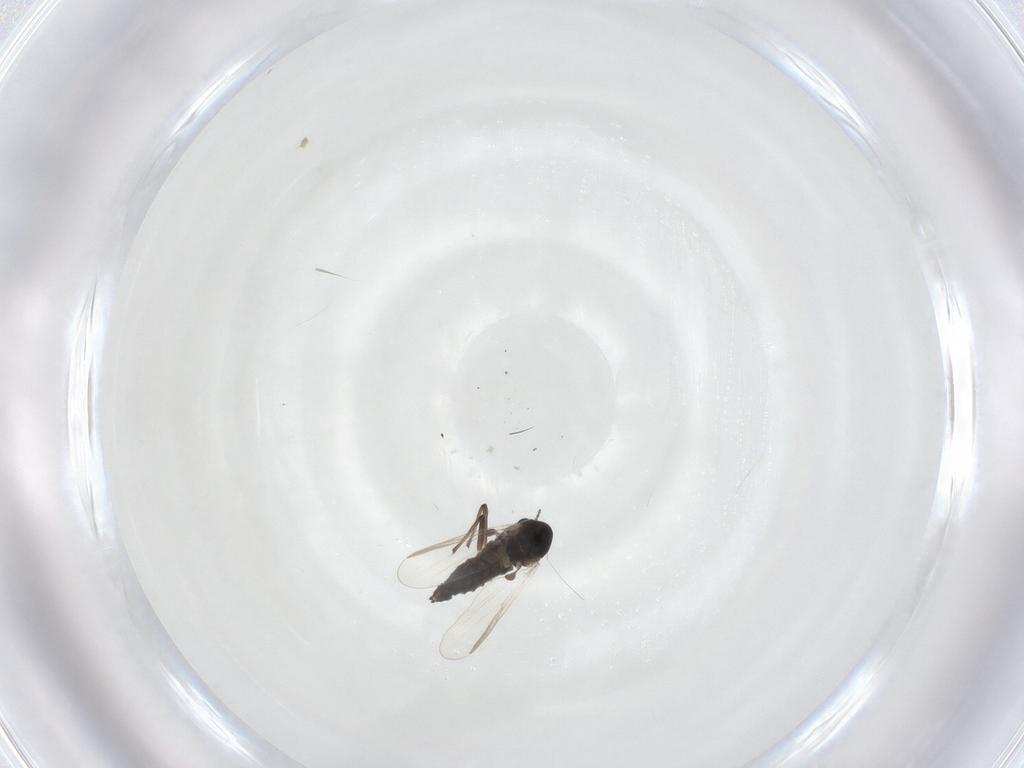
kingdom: Animalia
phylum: Arthropoda
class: Insecta
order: Diptera
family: Chironomidae
